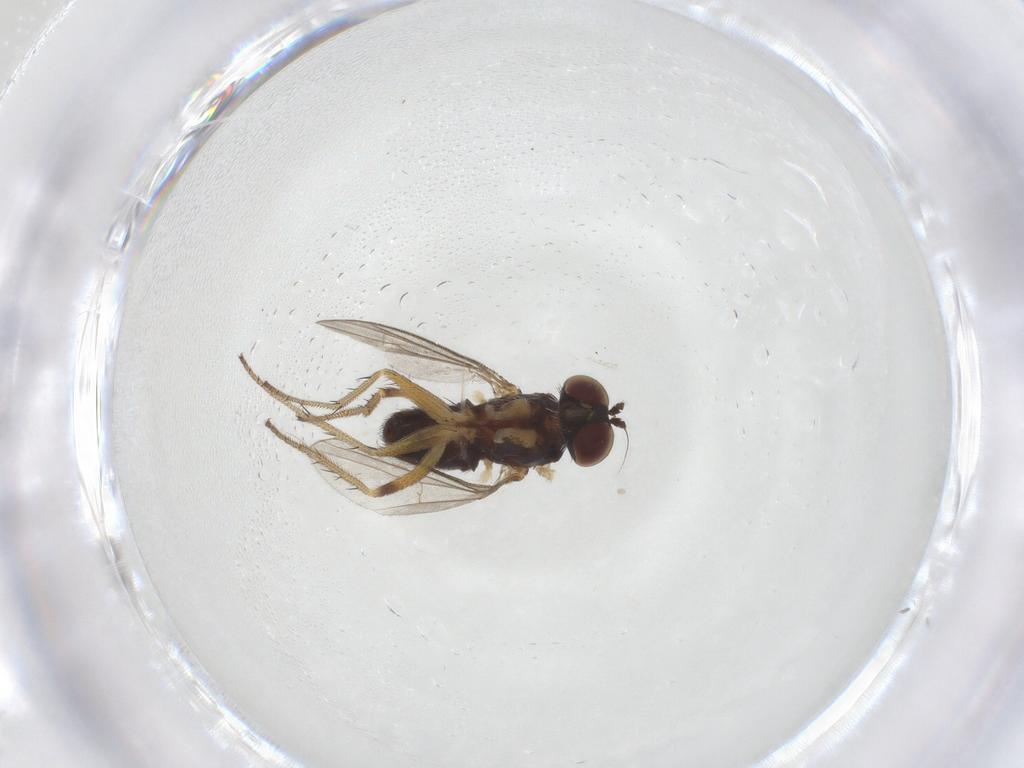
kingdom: Animalia
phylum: Arthropoda
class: Insecta
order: Diptera
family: Dolichopodidae
